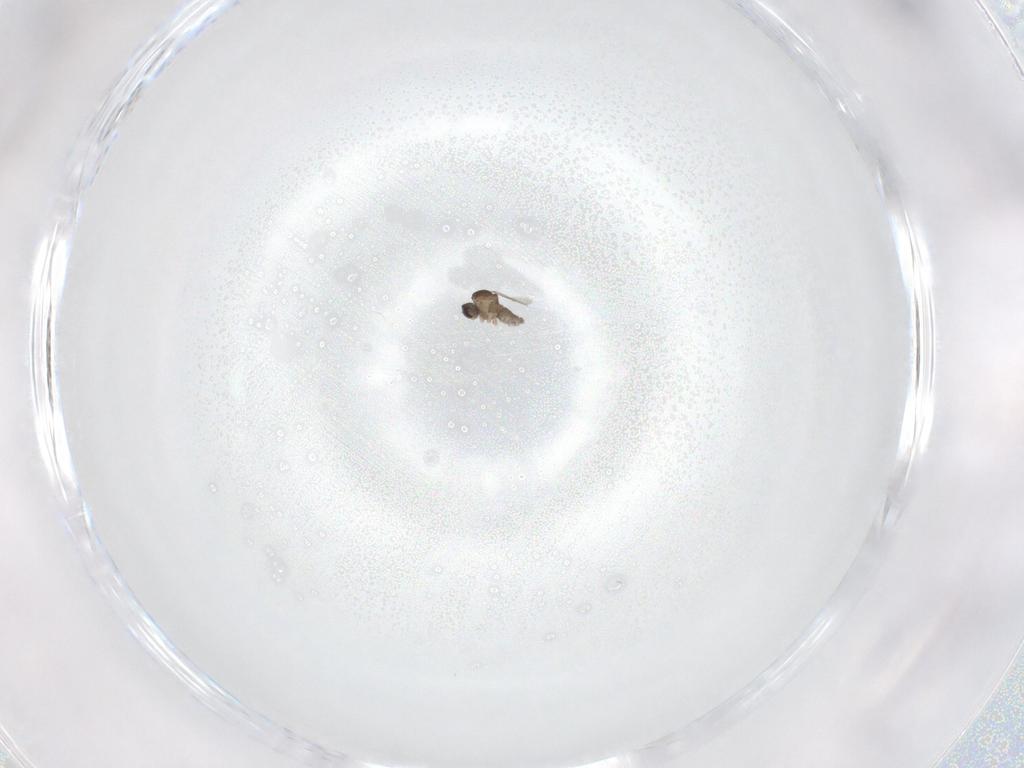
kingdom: Animalia
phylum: Arthropoda
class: Insecta
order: Diptera
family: Cecidomyiidae
